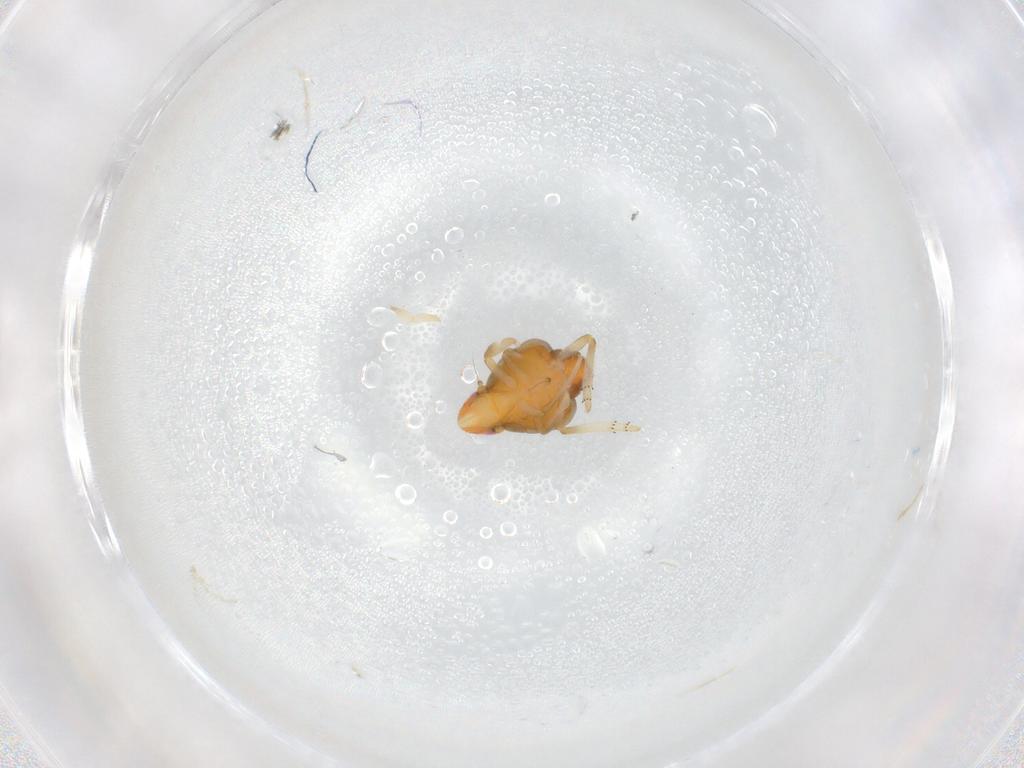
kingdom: Animalia
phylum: Arthropoda
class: Insecta
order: Hemiptera
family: Fulgoroidea_incertae_sedis
